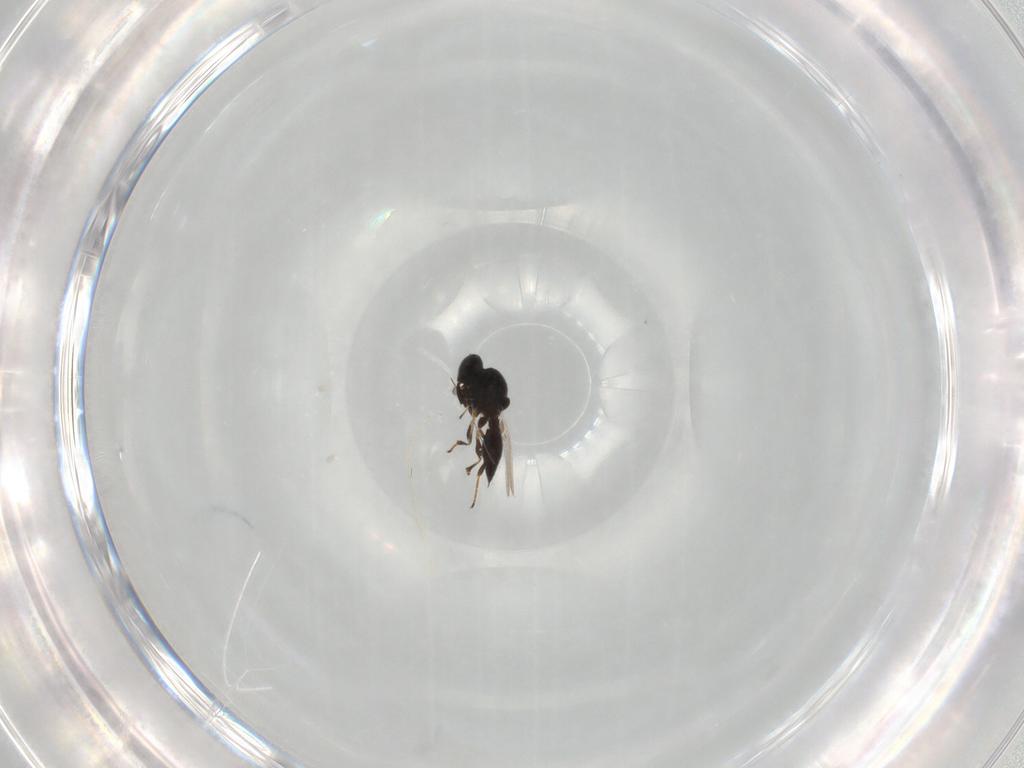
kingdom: Animalia
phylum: Arthropoda
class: Insecta
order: Hymenoptera
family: Platygastridae
